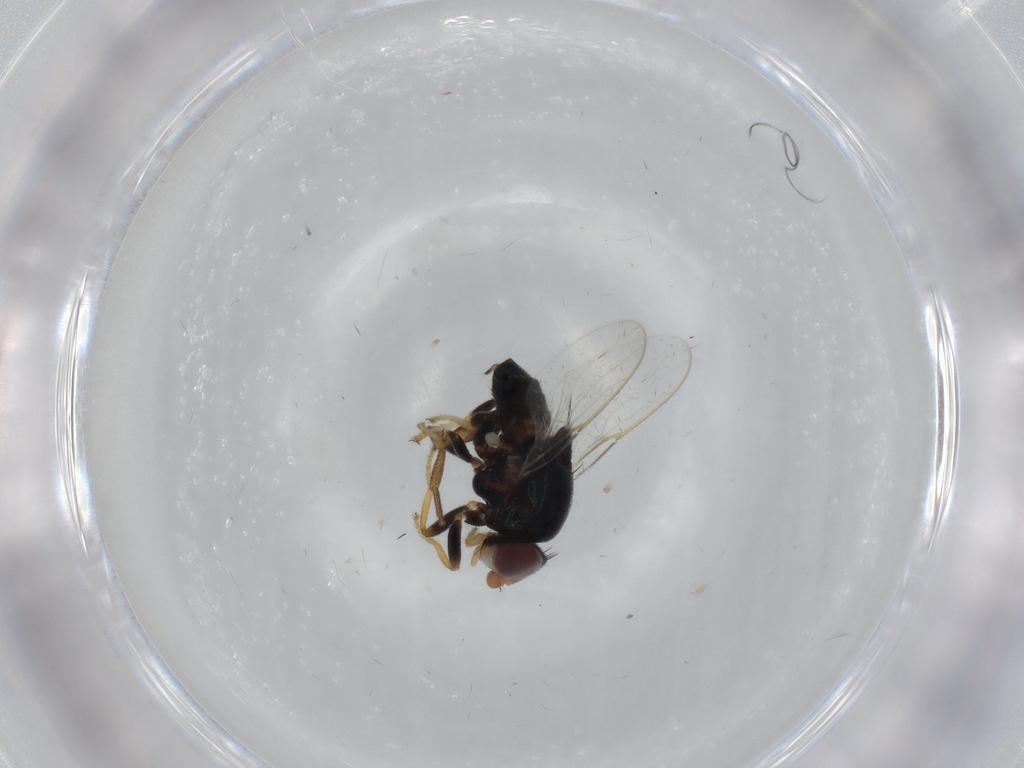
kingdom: Animalia
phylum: Arthropoda
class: Insecta
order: Diptera
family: Chloropidae
